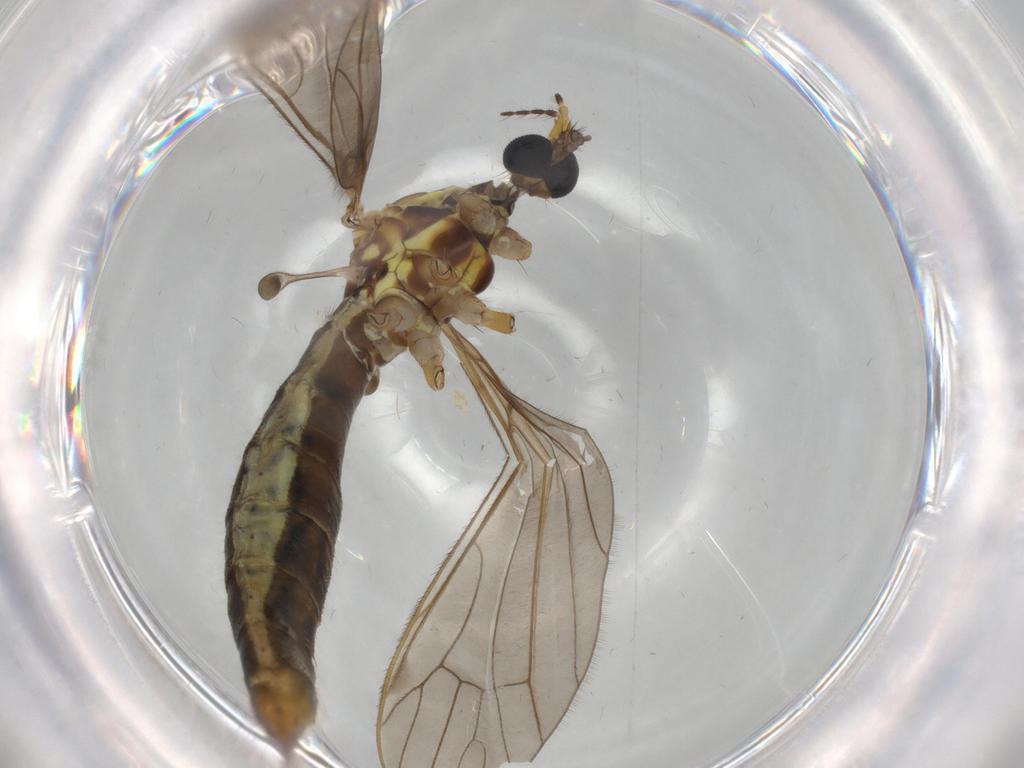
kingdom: Animalia
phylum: Arthropoda
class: Insecta
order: Diptera
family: Limoniidae
